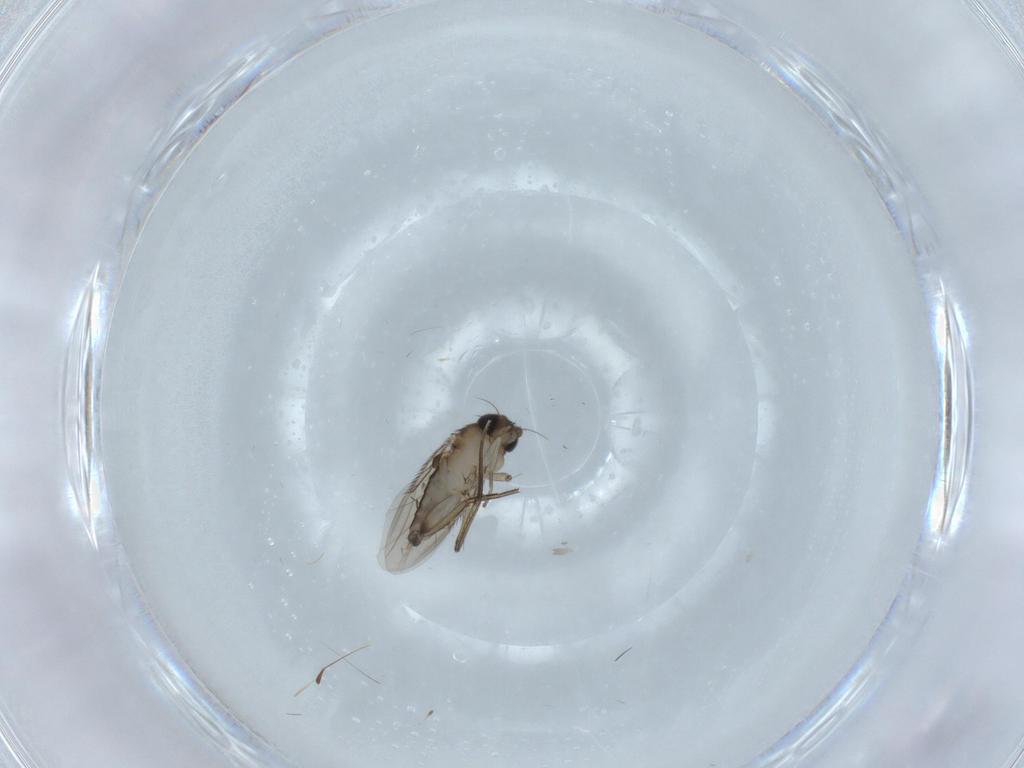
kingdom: Animalia
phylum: Arthropoda
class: Insecta
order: Diptera
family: Phoridae
